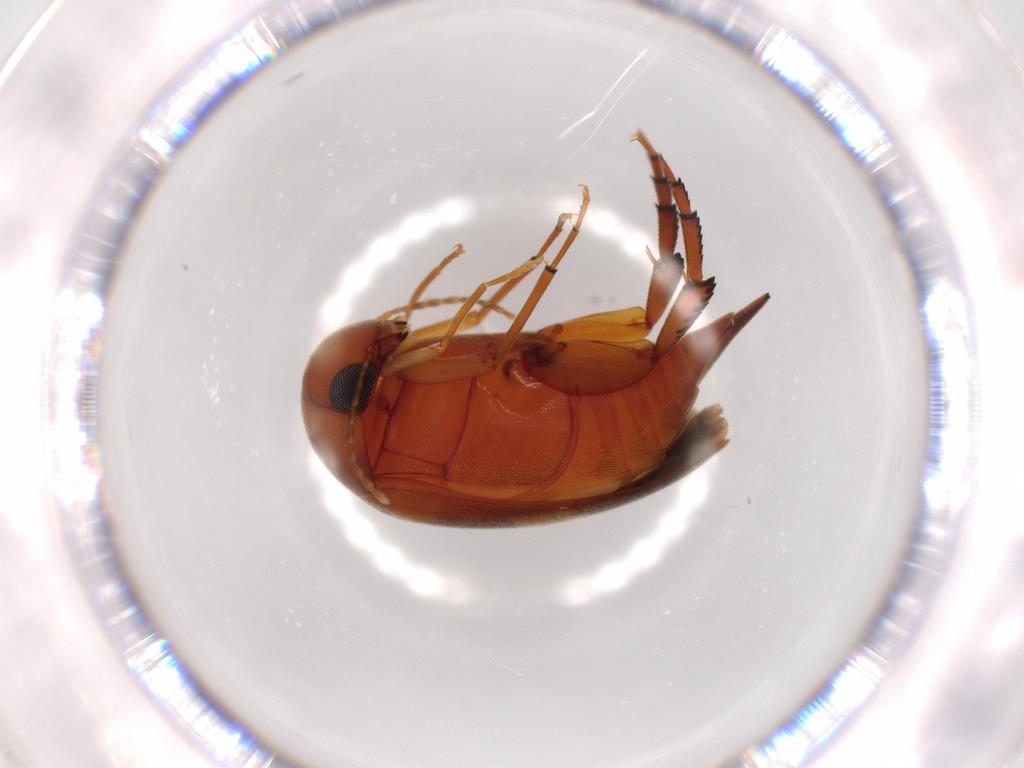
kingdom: Animalia
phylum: Arthropoda
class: Insecta
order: Coleoptera
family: Mordellidae
